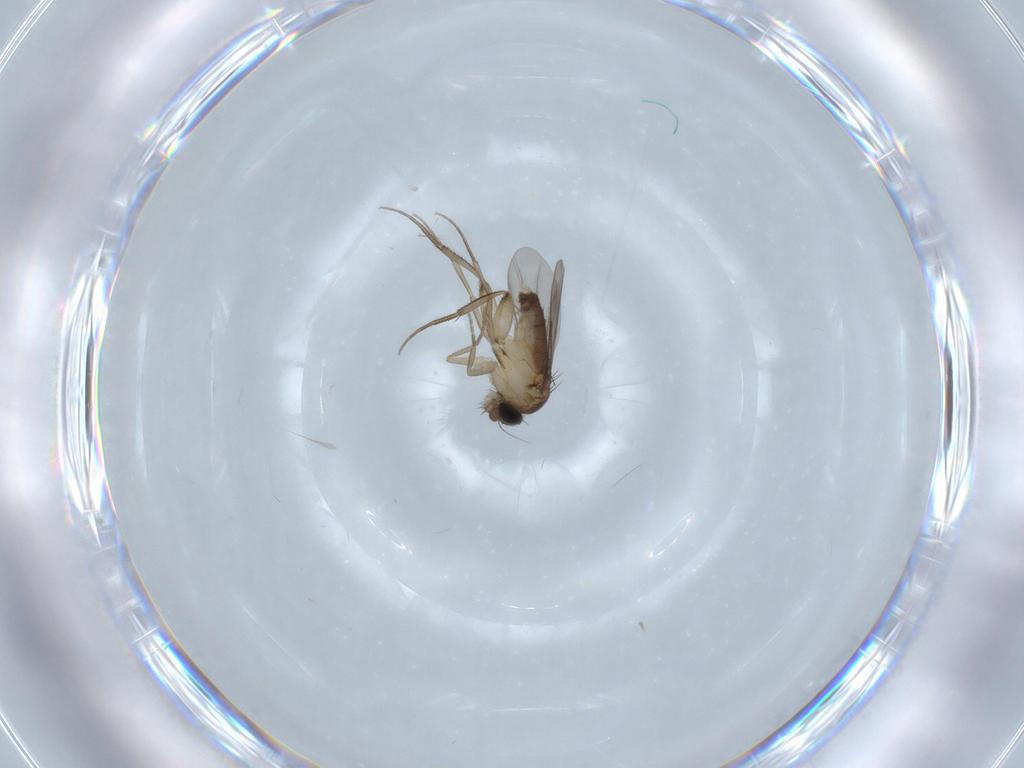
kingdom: Animalia
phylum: Arthropoda
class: Insecta
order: Diptera
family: Phoridae
